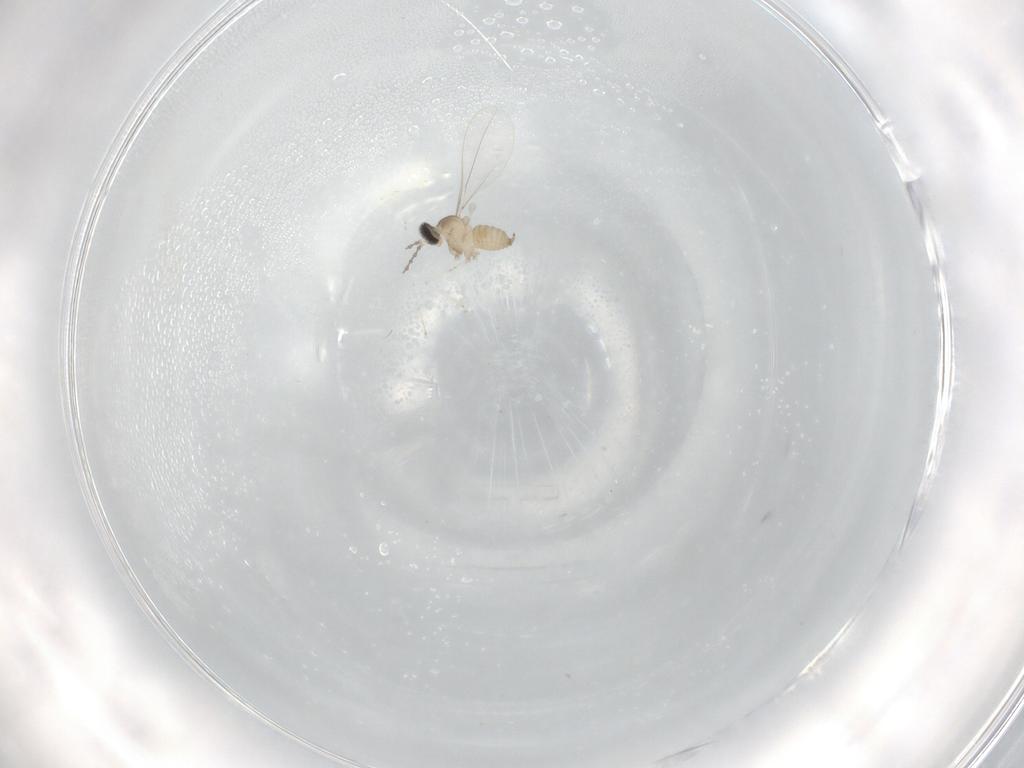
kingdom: Animalia
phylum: Arthropoda
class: Insecta
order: Diptera
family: Cecidomyiidae
